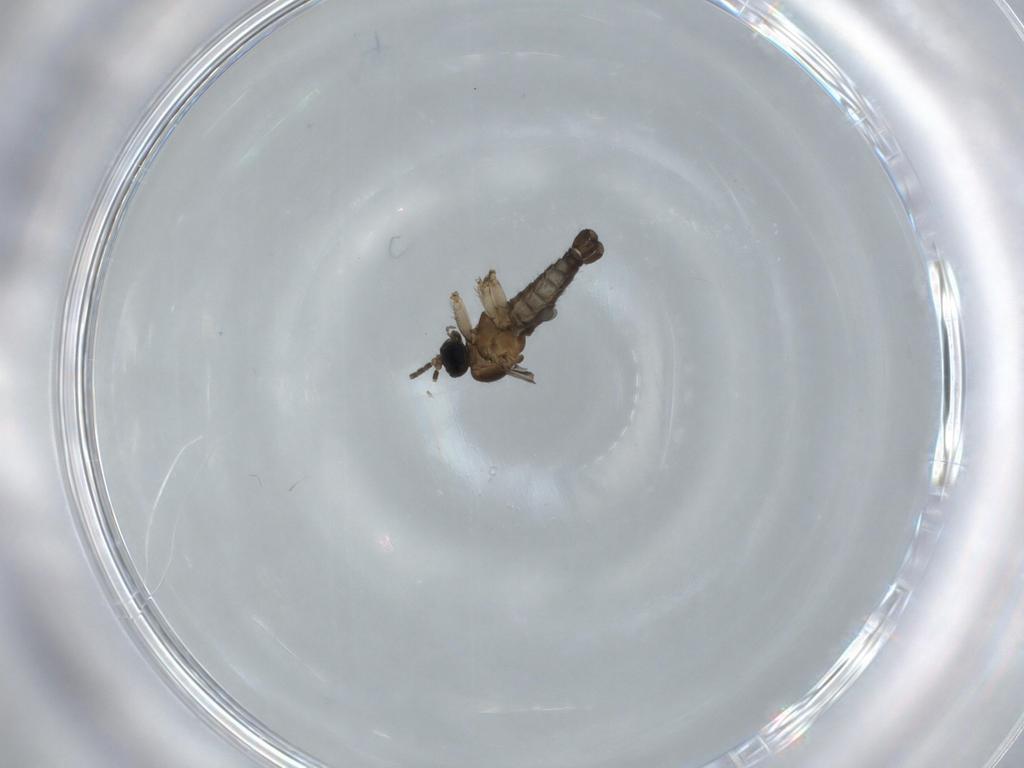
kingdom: Animalia
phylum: Arthropoda
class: Insecta
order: Diptera
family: Sciaridae
